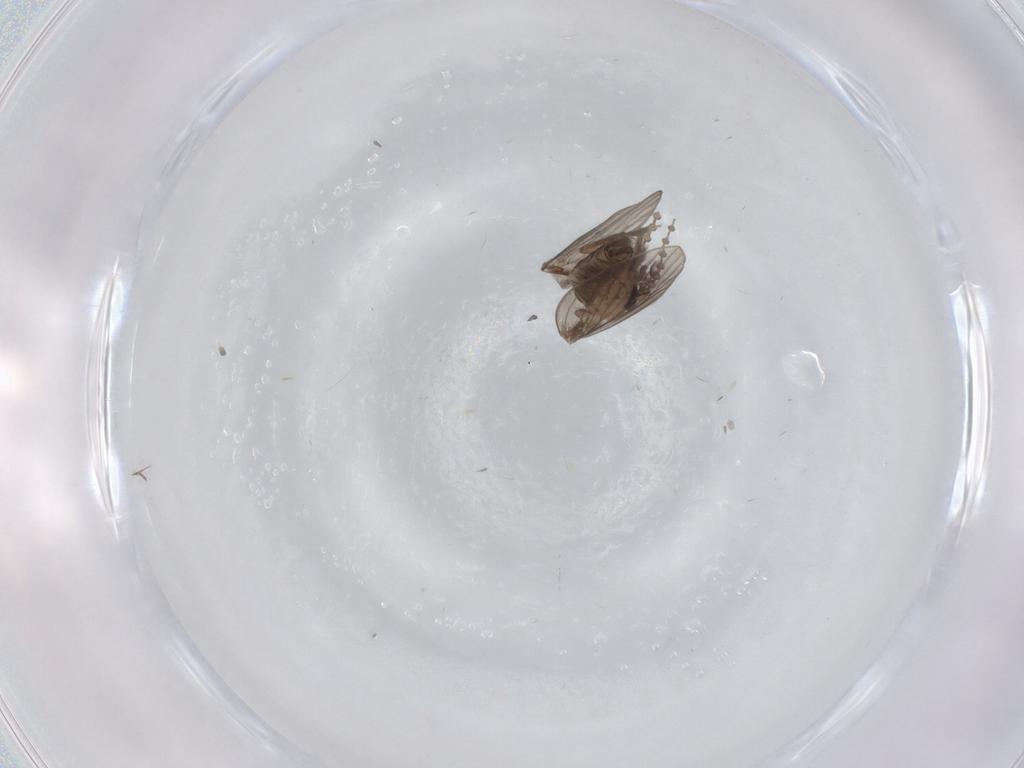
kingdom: Animalia
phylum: Arthropoda
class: Insecta
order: Diptera
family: Psychodidae
